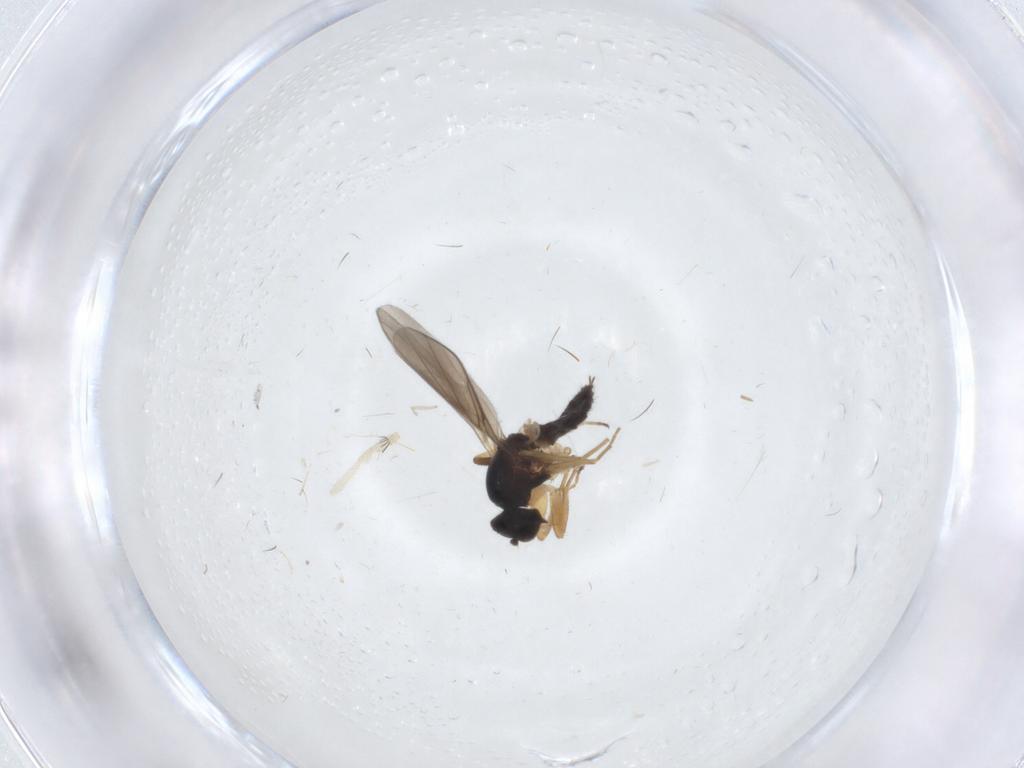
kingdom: Animalia
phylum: Arthropoda
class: Insecta
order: Diptera
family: Hybotidae
